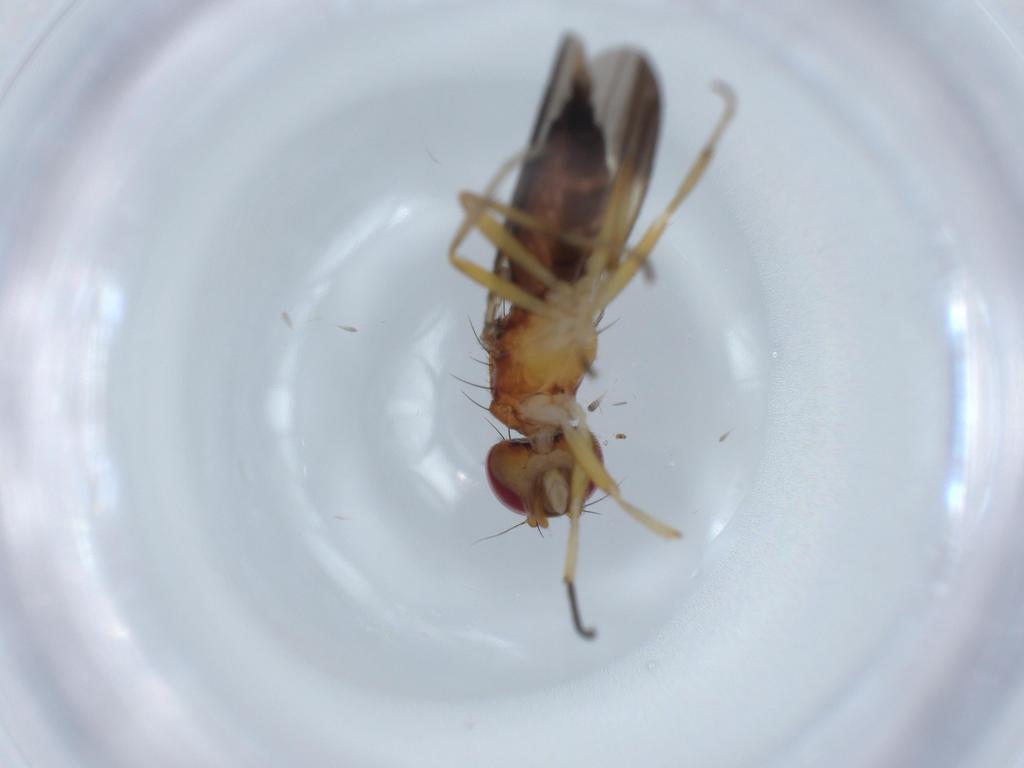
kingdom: Animalia
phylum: Arthropoda
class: Insecta
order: Diptera
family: Clusiidae
